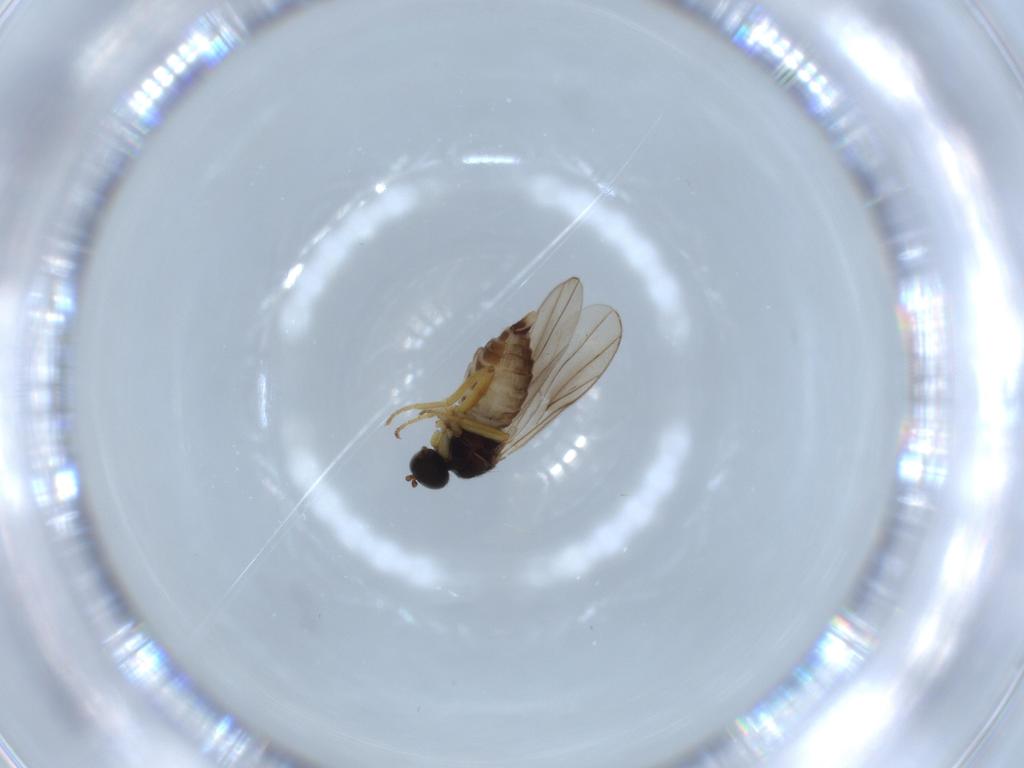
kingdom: Animalia
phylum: Arthropoda
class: Insecta
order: Diptera
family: Hybotidae
